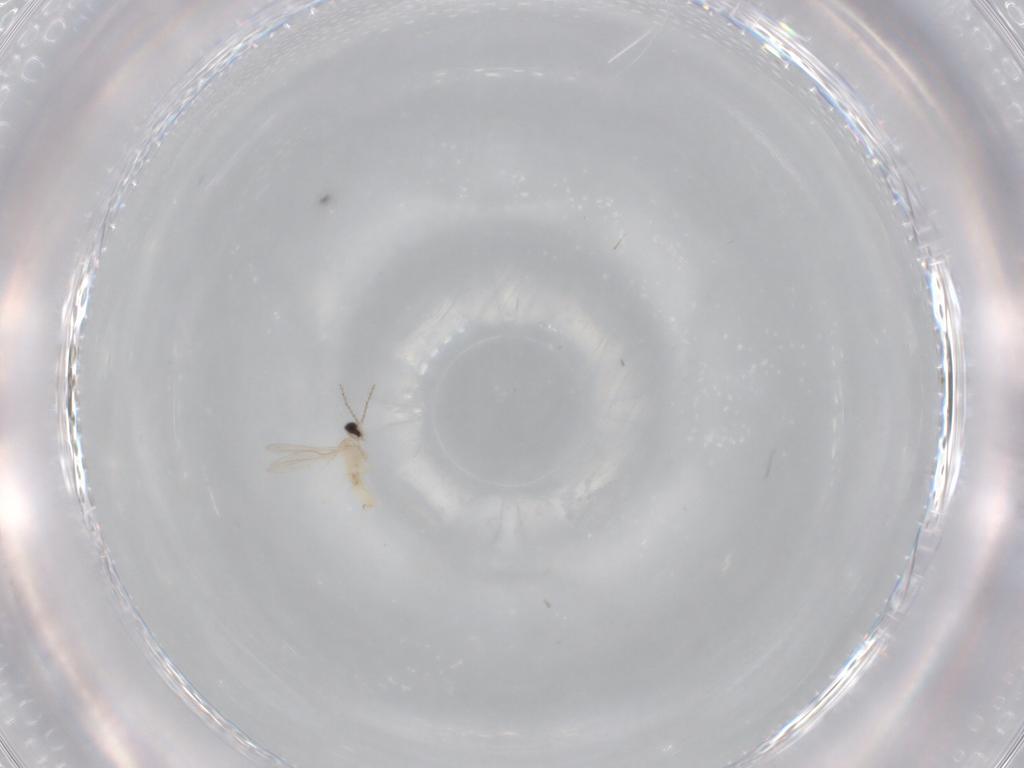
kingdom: Animalia
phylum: Arthropoda
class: Insecta
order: Diptera
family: Cecidomyiidae
